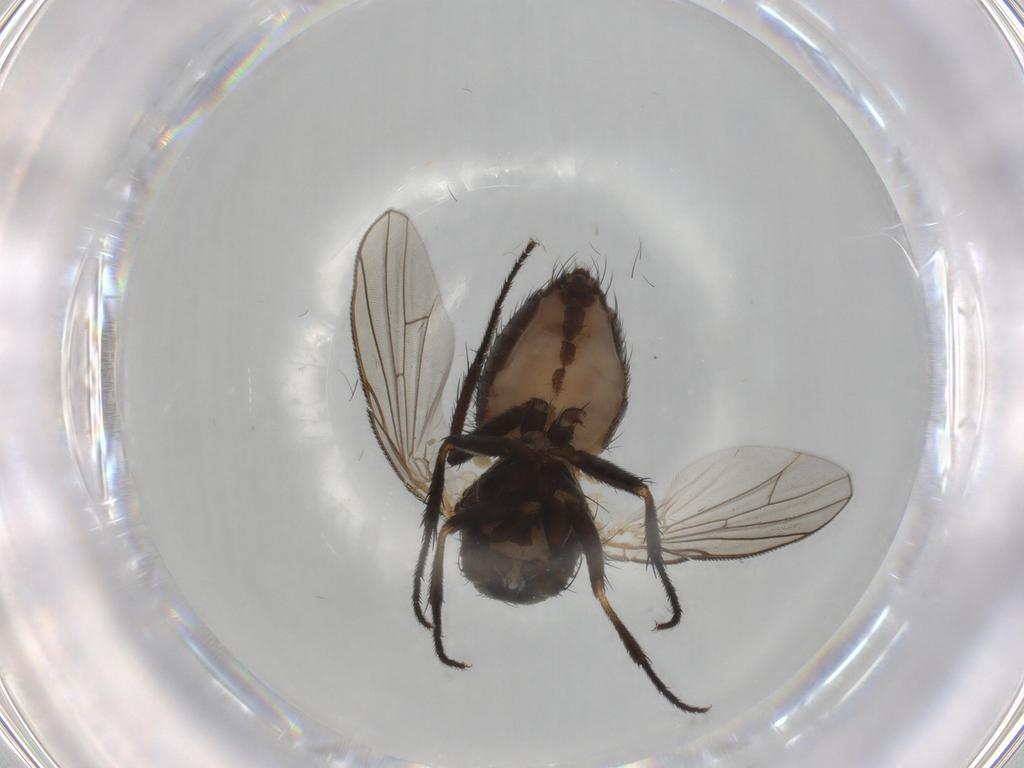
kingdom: Animalia
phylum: Arthropoda
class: Insecta
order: Diptera
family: Fannia
